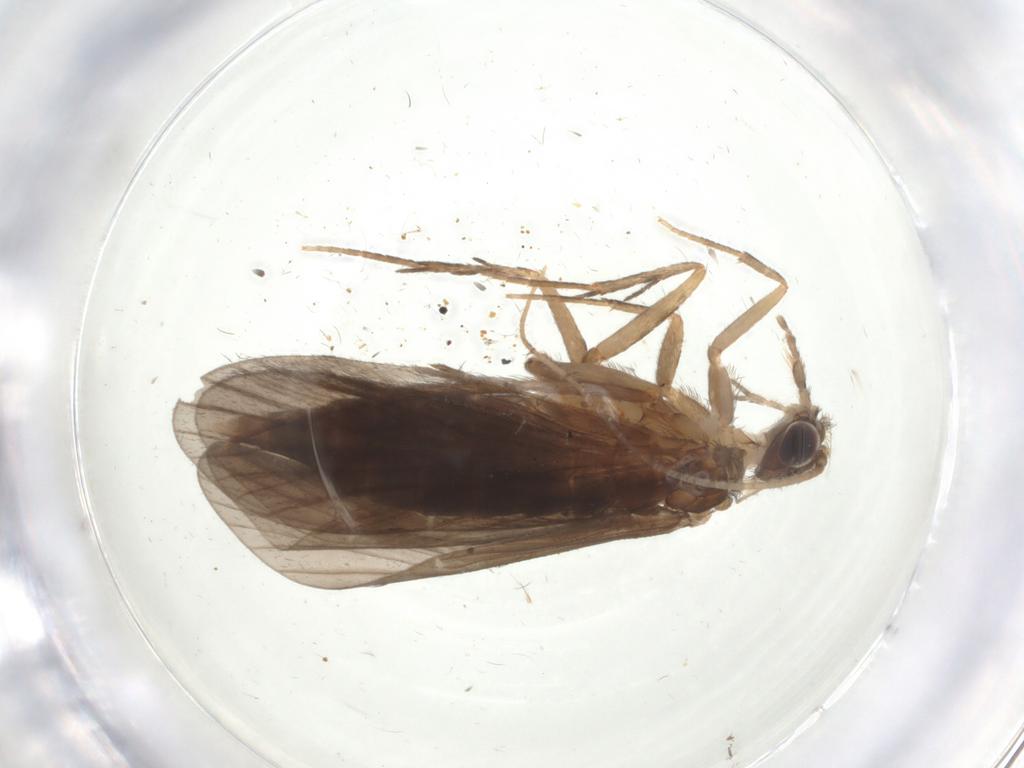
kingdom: Animalia
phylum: Arthropoda
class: Insecta
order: Trichoptera
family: Philopotamidae
